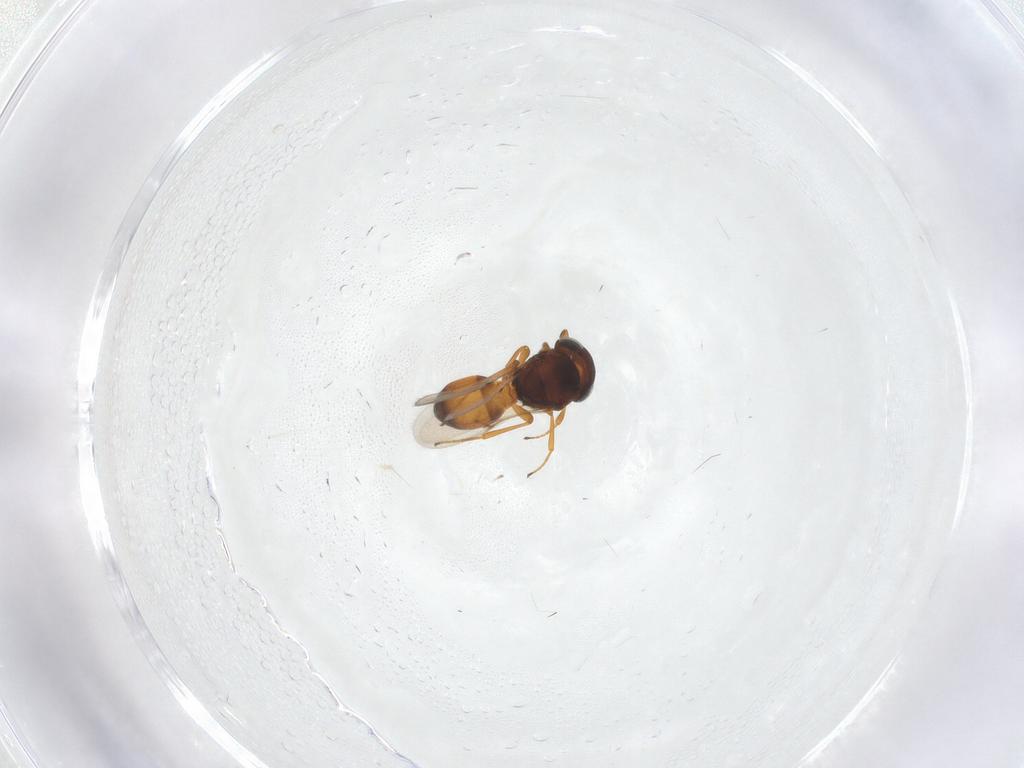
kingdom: Animalia
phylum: Arthropoda
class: Arachnida
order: Araneae
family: Pholcidae
